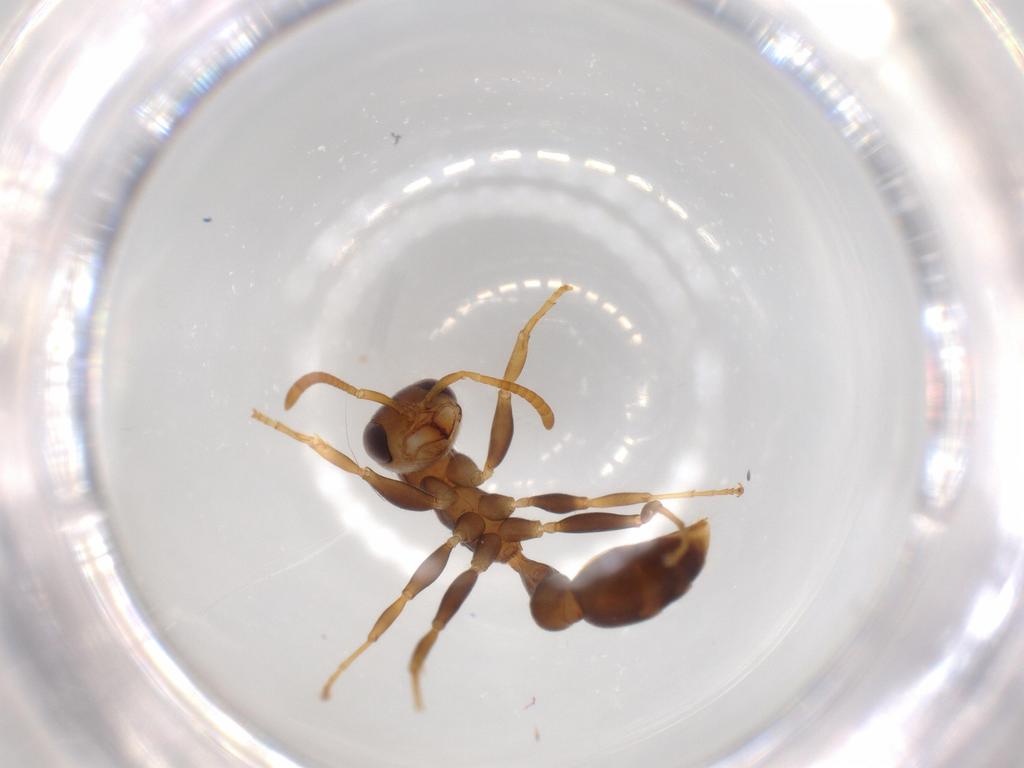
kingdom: Animalia
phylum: Arthropoda
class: Insecta
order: Hymenoptera
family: Formicidae
